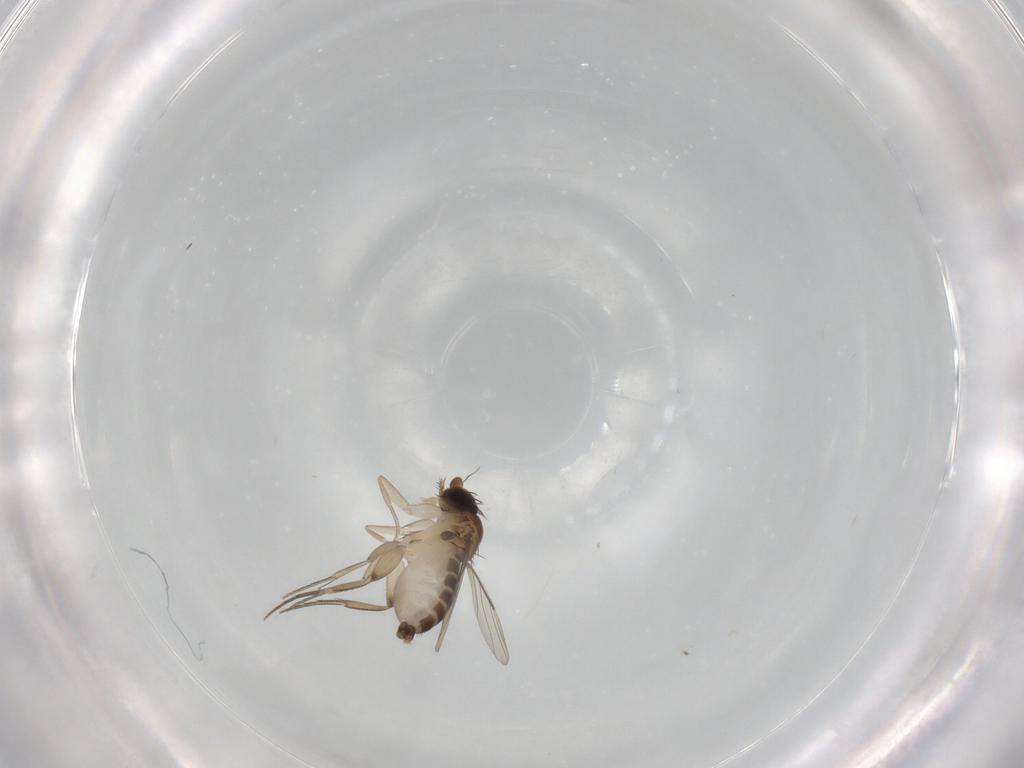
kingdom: Animalia
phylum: Arthropoda
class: Insecta
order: Diptera
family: Phoridae
